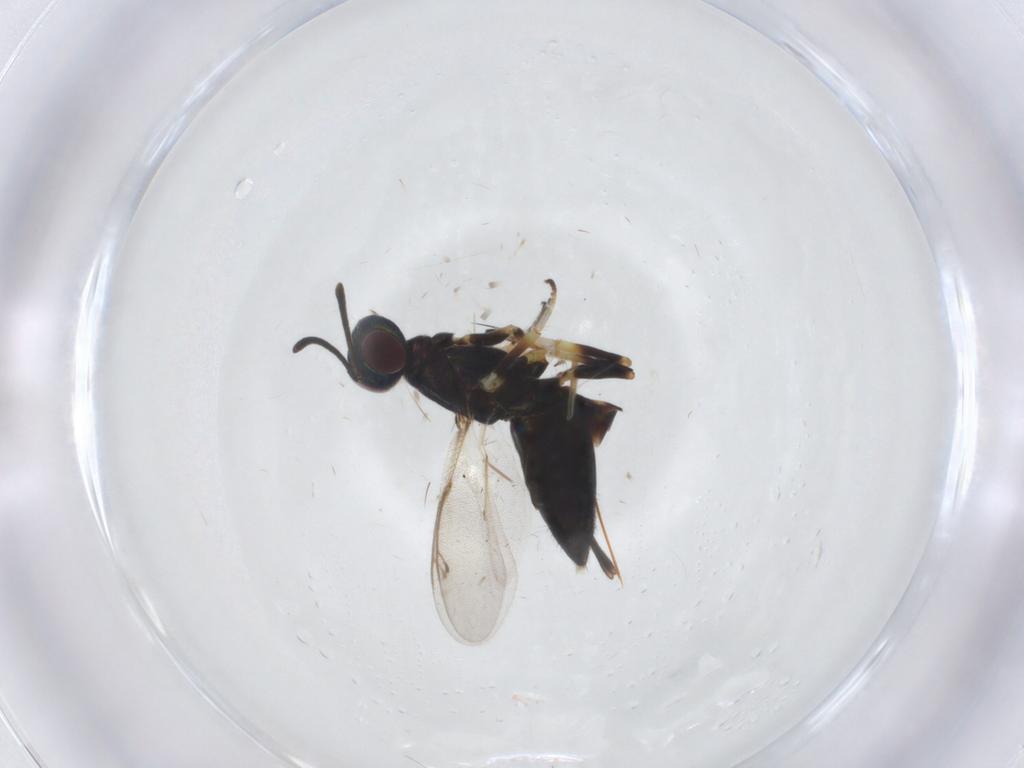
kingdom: Animalia
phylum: Arthropoda
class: Insecta
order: Hymenoptera
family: Eupelmidae
